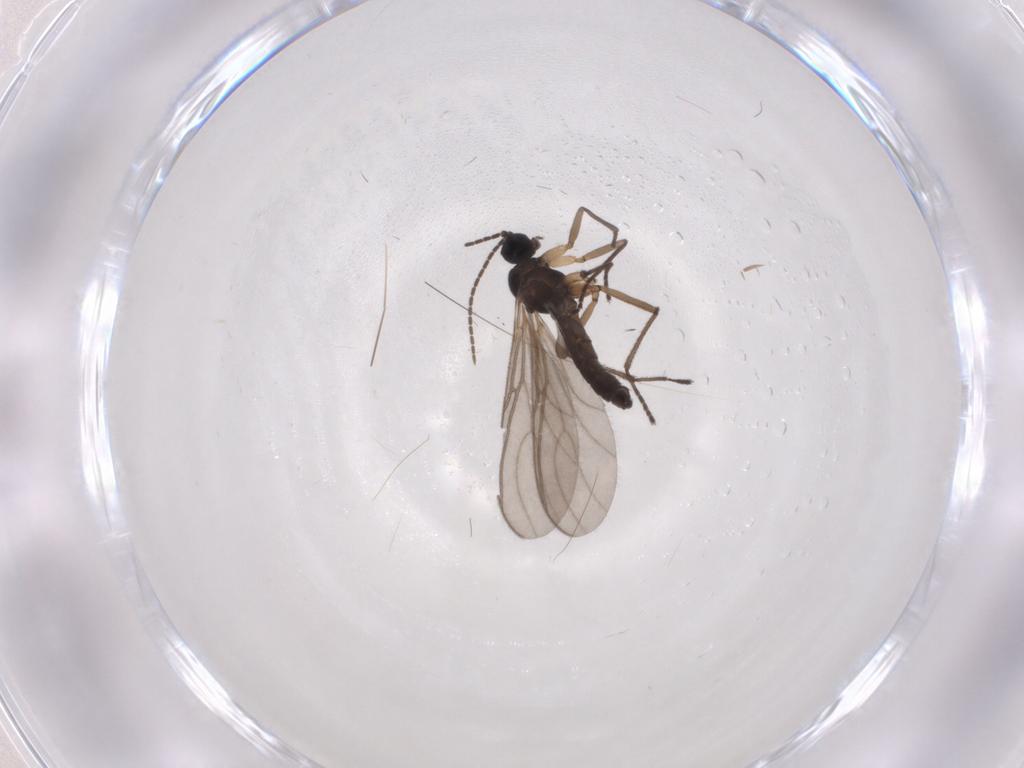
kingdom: Animalia
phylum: Arthropoda
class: Insecta
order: Diptera
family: Sciaridae
